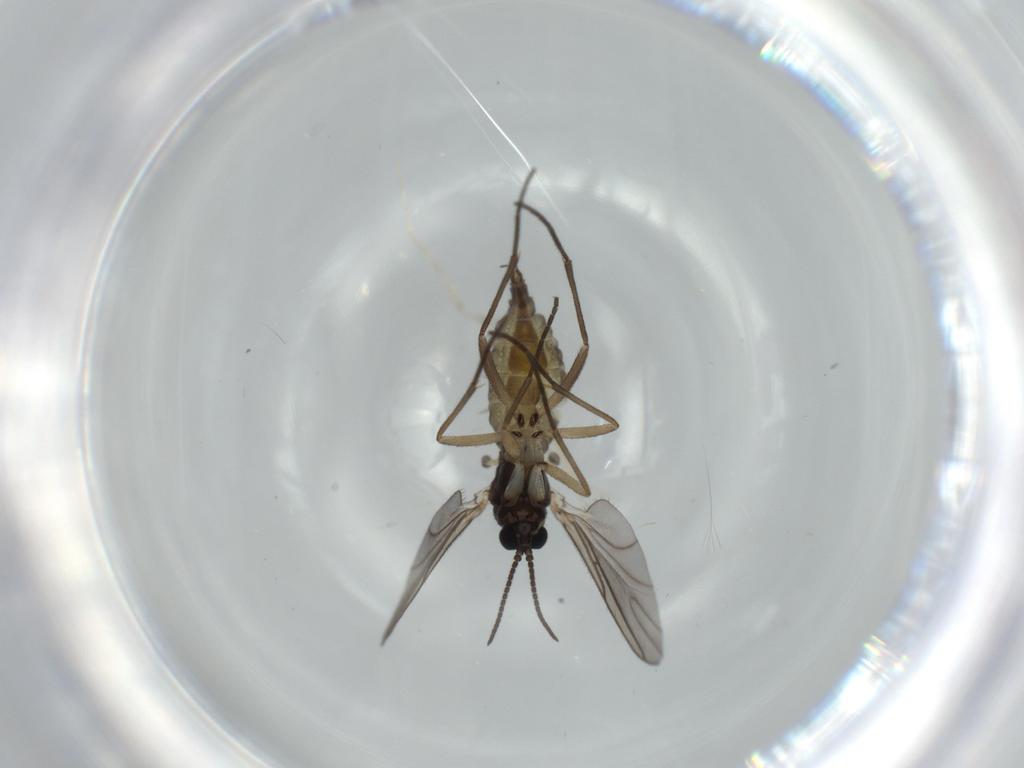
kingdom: Animalia
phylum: Arthropoda
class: Insecta
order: Diptera
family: Sciaridae
